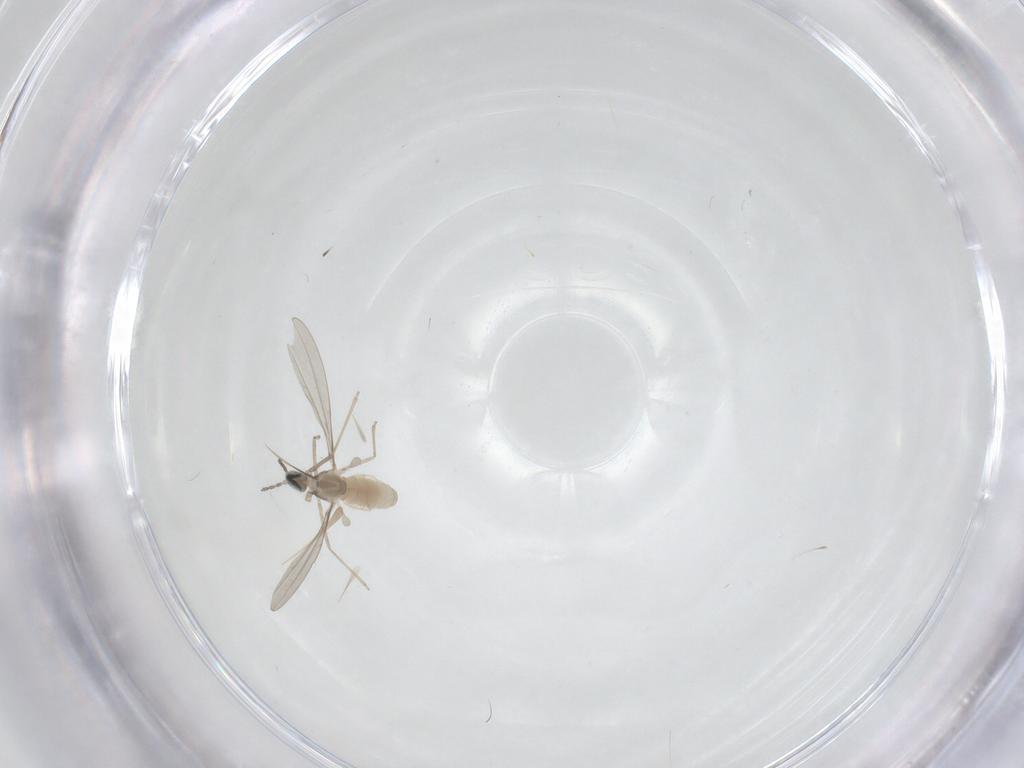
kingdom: Animalia
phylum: Arthropoda
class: Insecta
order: Diptera
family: Cecidomyiidae
